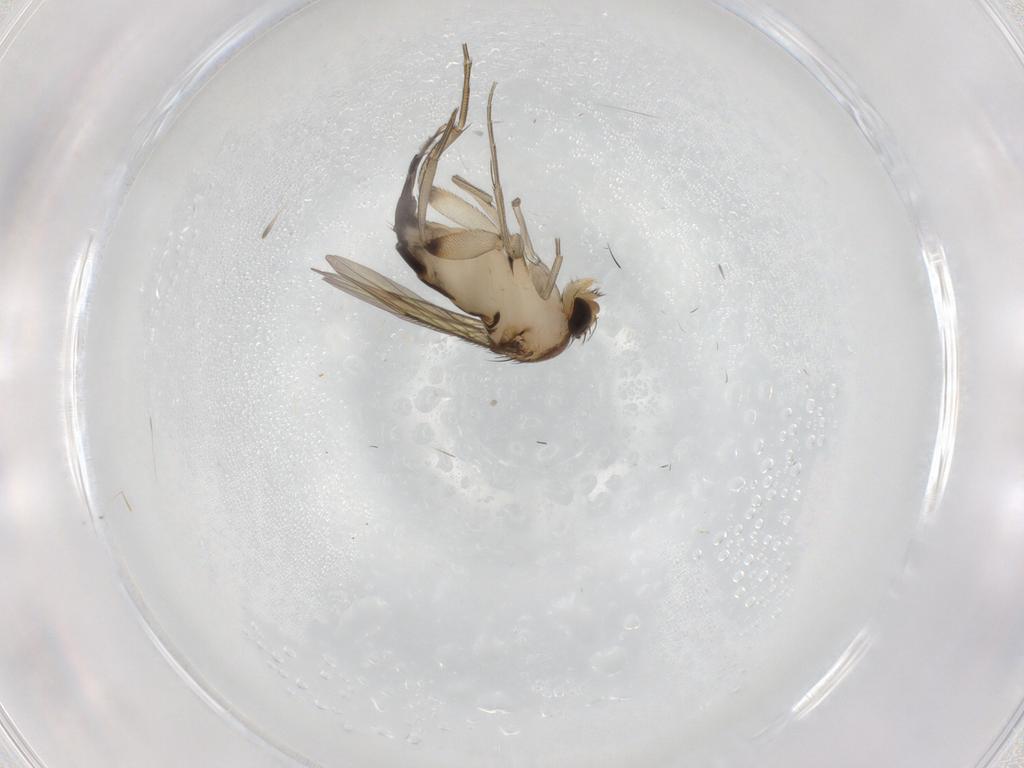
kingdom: Animalia
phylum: Arthropoda
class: Insecta
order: Diptera
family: Phoridae
